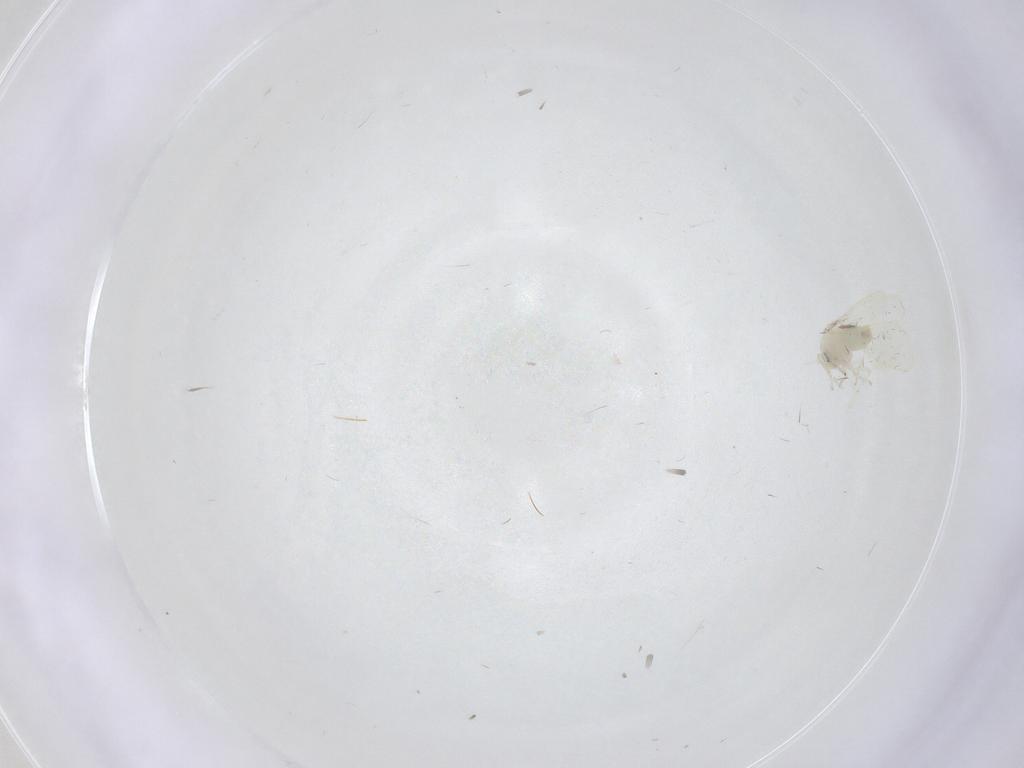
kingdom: Animalia
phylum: Arthropoda
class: Insecta
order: Hemiptera
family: Aleyrodidae
